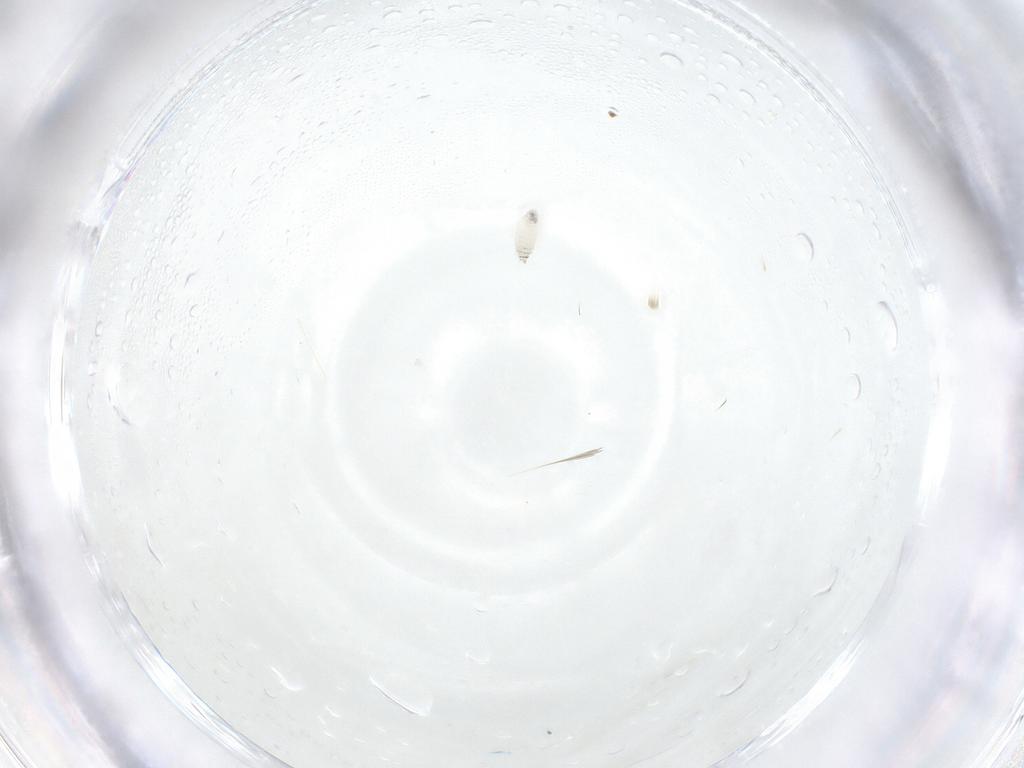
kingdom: Animalia
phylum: Arthropoda
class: Insecta
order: Diptera
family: Tachinidae
